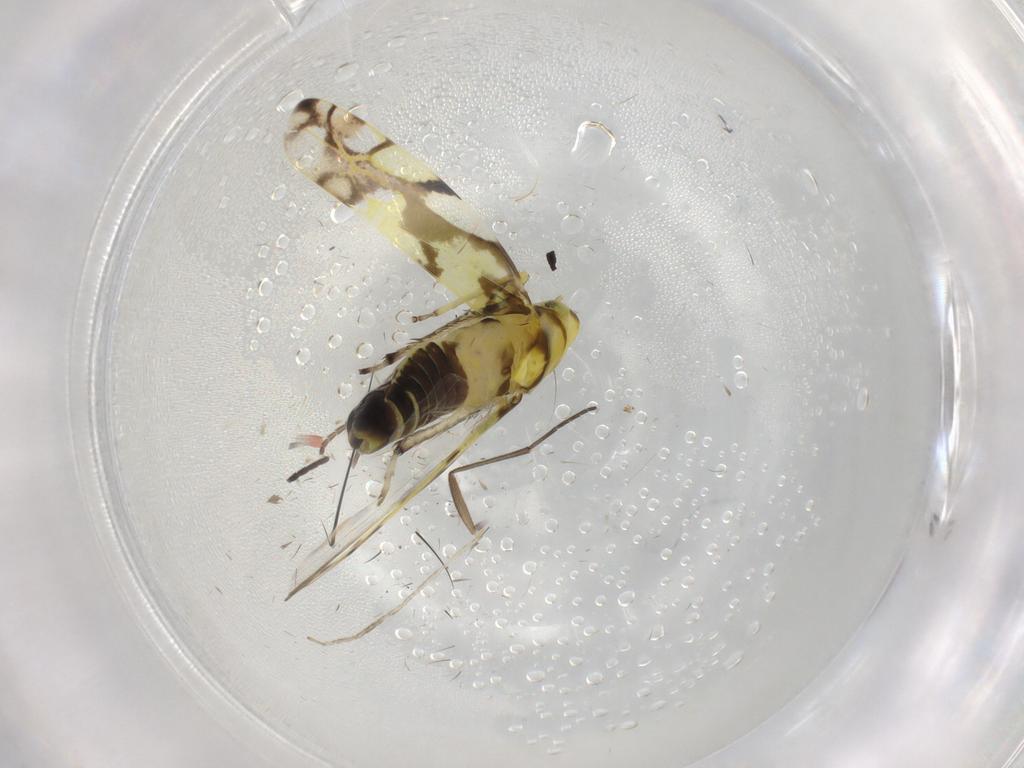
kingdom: Animalia
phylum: Arthropoda
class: Insecta
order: Hemiptera
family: Cicadellidae
